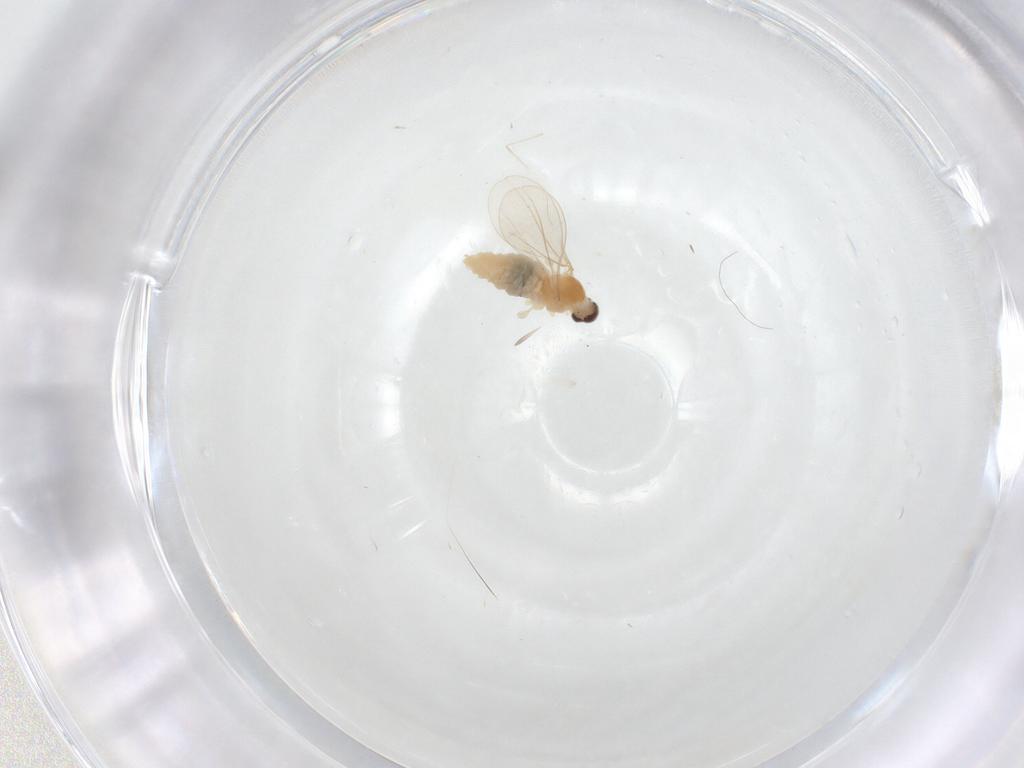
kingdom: Animalia
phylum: Arthropoda
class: Insecta
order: Diptera
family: Cecidomyiidae
